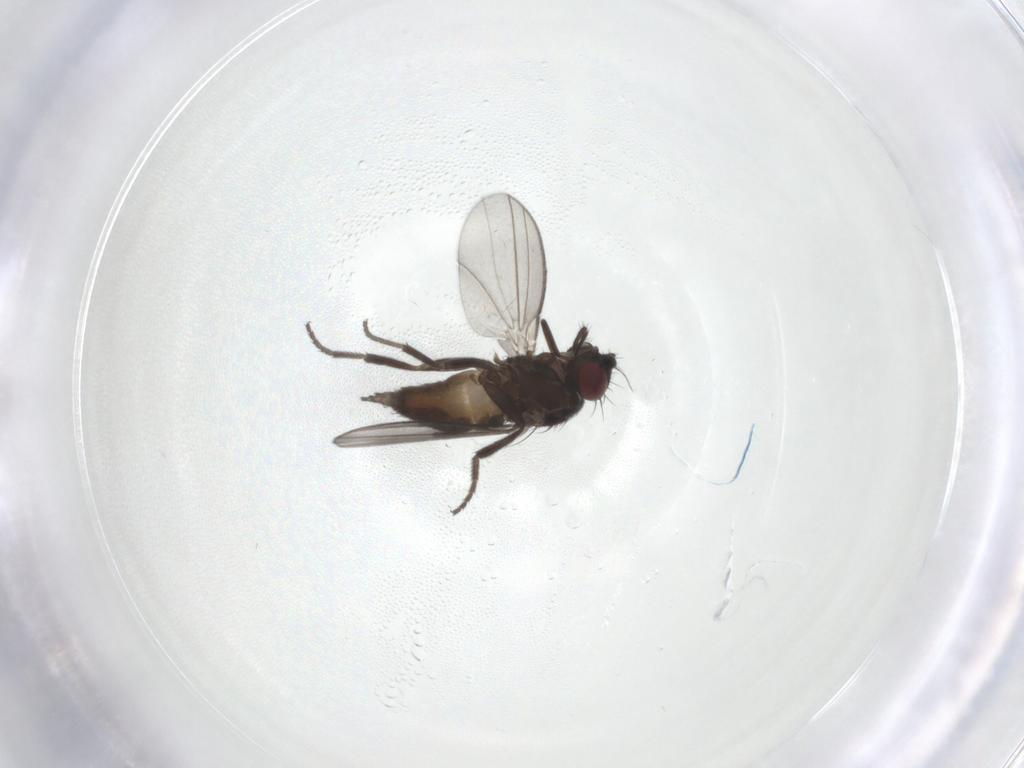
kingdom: Animalia
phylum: Arthropoda
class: Insecta
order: Diptera
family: Milichiidae
